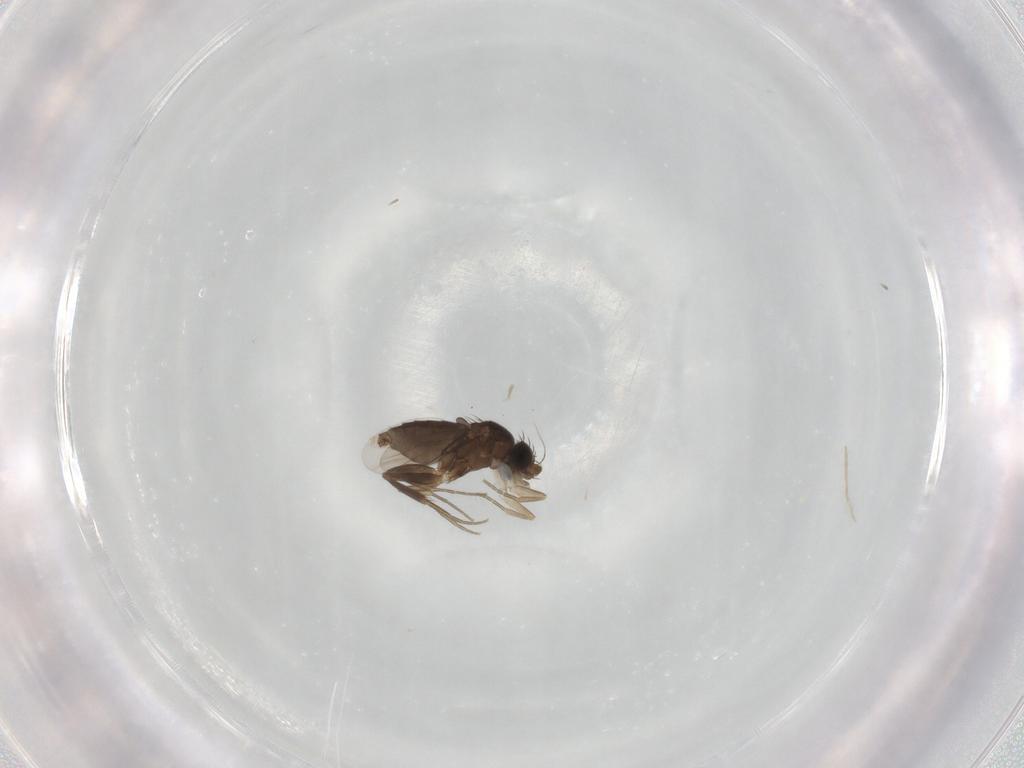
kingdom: Animalia
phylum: Arthropoda
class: Insecta
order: Diptera
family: Phoridae
